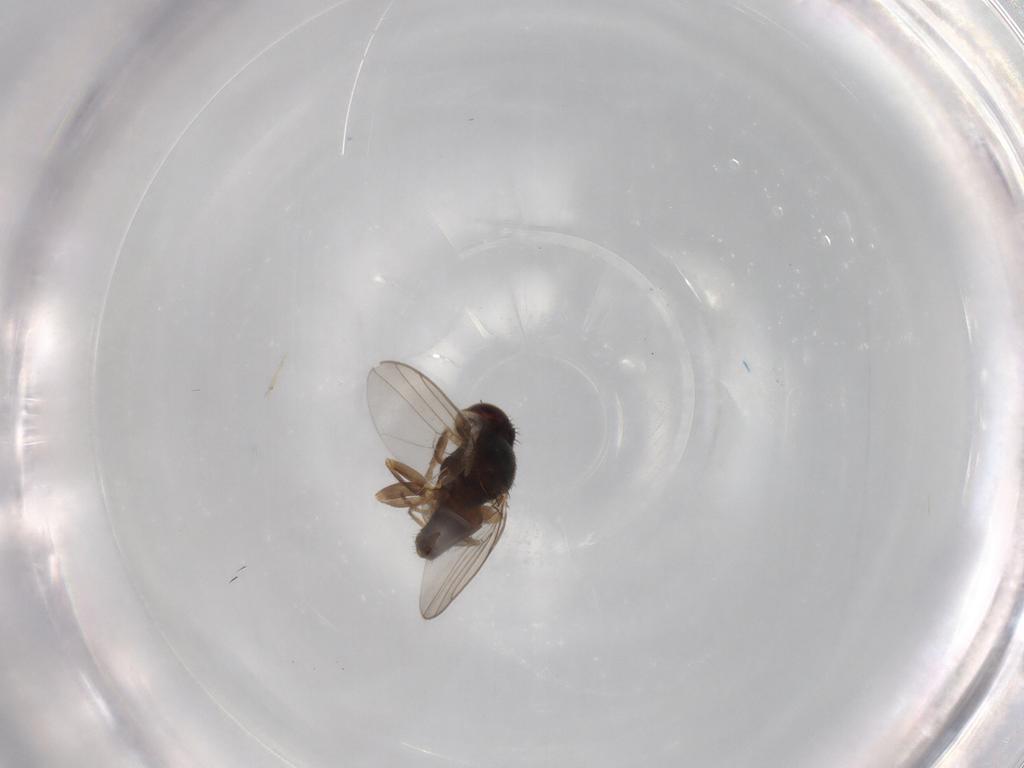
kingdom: Animalia
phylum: Arthropoda
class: Insecta
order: Diptera
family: Chloropidae
